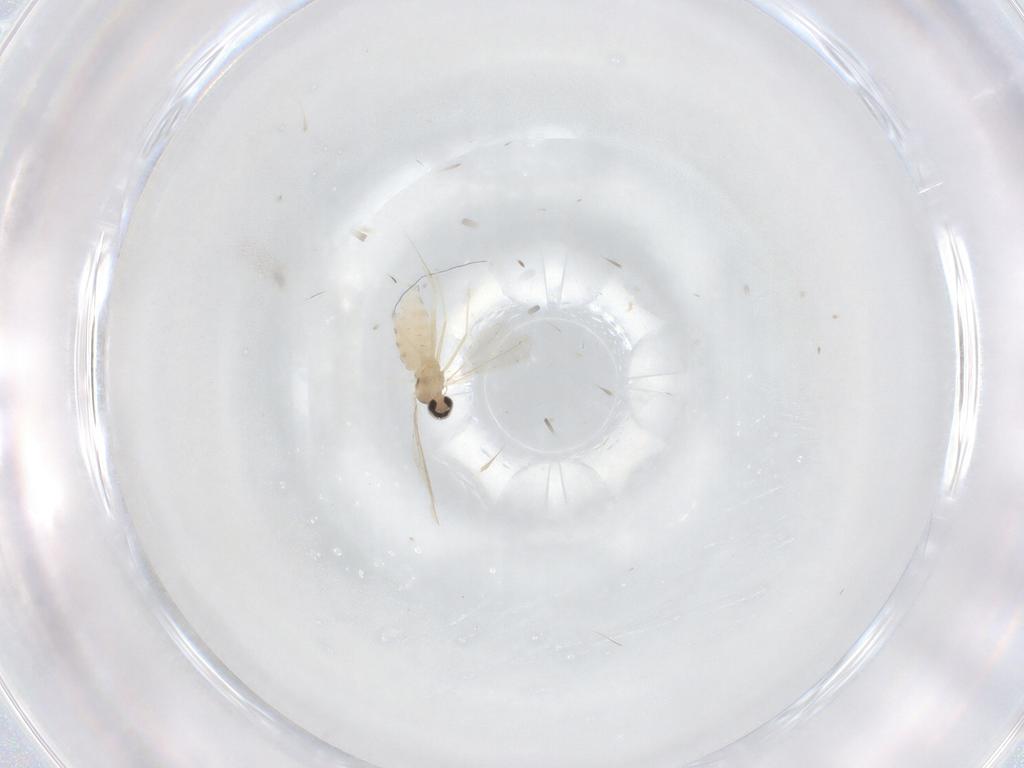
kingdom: Animalia
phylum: Arthropoda
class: Insecta
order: Diptera
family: Cecidomyiidae
